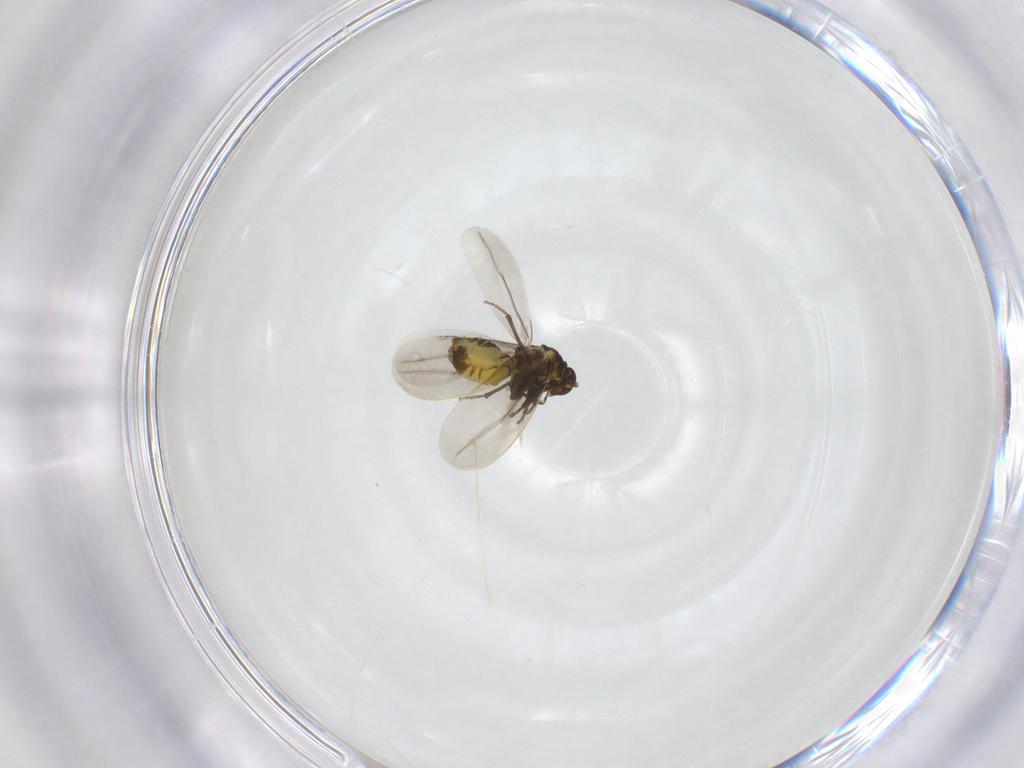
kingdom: Animalia
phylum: Arthropoda
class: Insecta
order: Hemiptera
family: Aleyrodidae
